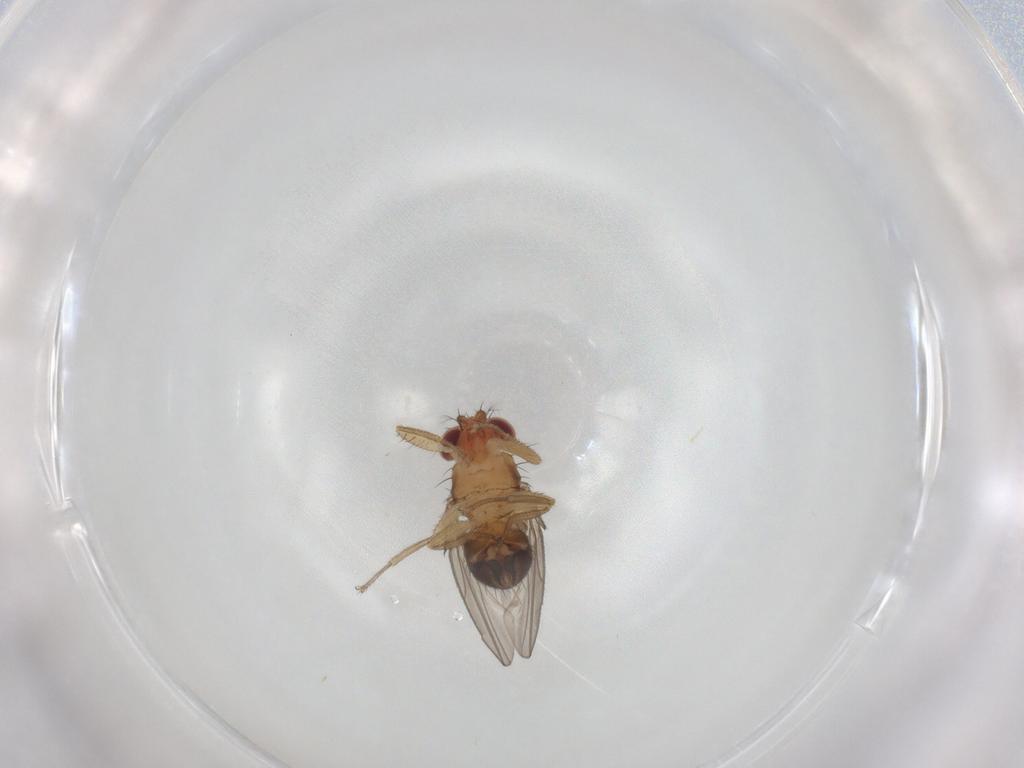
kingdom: Animalia
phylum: Arthropoda
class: Insecta
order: Diptera
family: Drosophilidae
